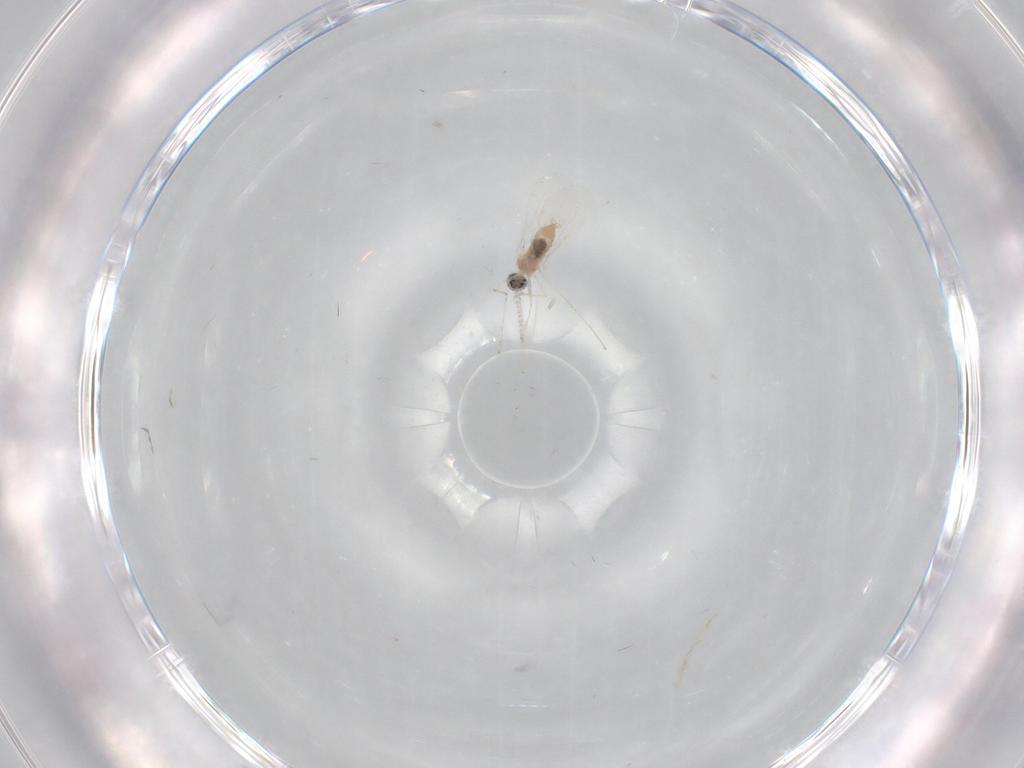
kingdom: Animalia
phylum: Arthropoda
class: Insecta
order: Diptera
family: Cecidomyiidae
